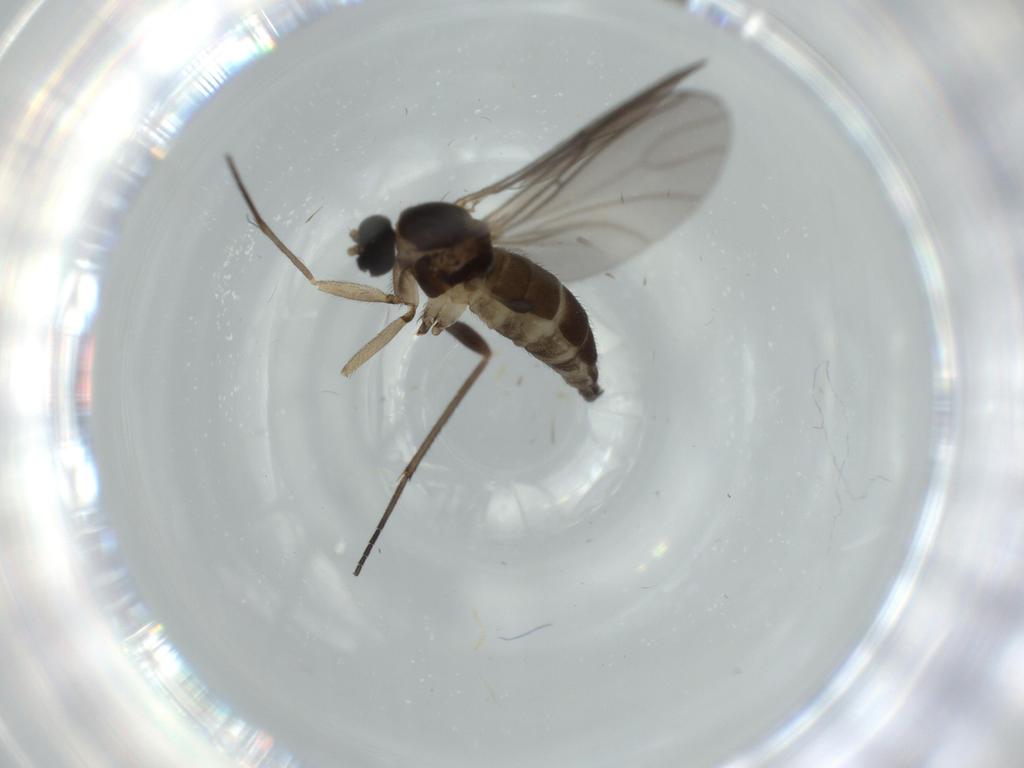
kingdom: Animalia
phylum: Arthropoda
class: Insecta
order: Diptera
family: Sciaridae
